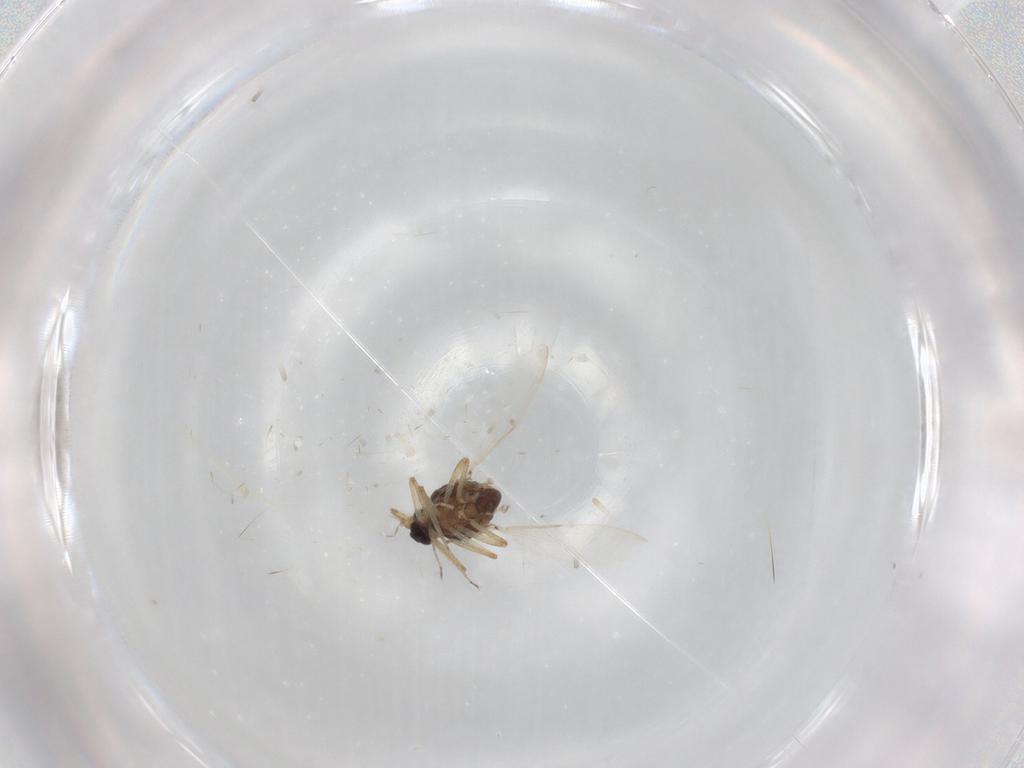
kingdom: Animalia
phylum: Arthropoda
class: Insecta
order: Diptera
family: Ceratopogonidae
